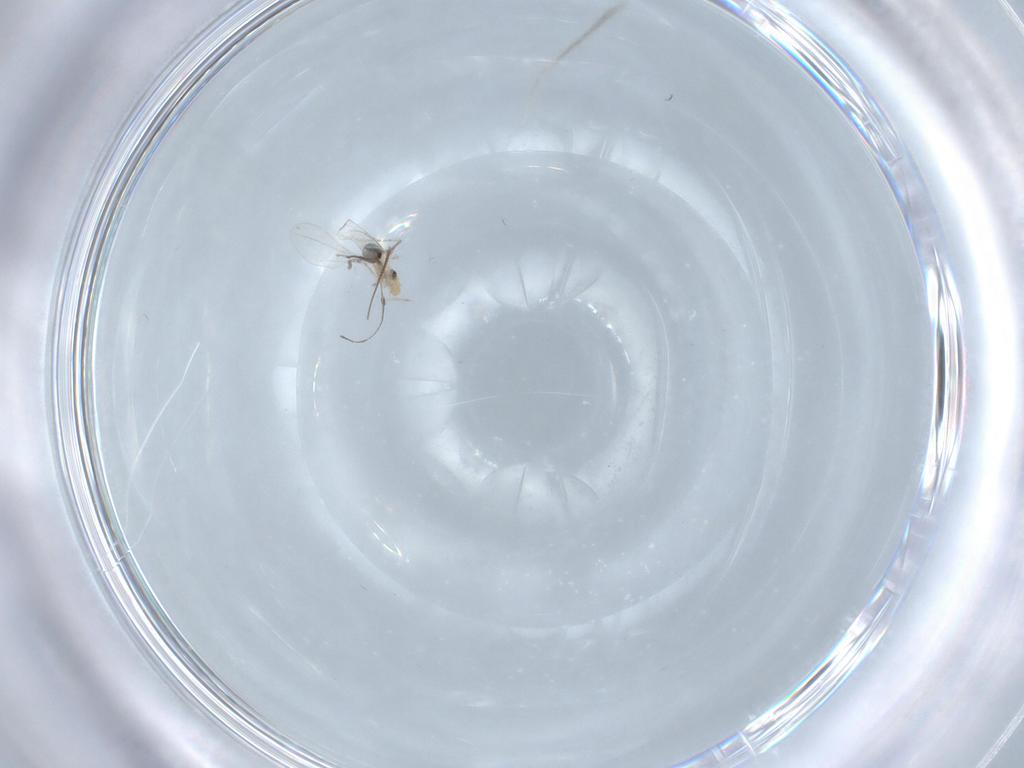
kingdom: Animalia
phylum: Arthropoda
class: Insecta
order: Diptera
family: Cecidomyiidae
